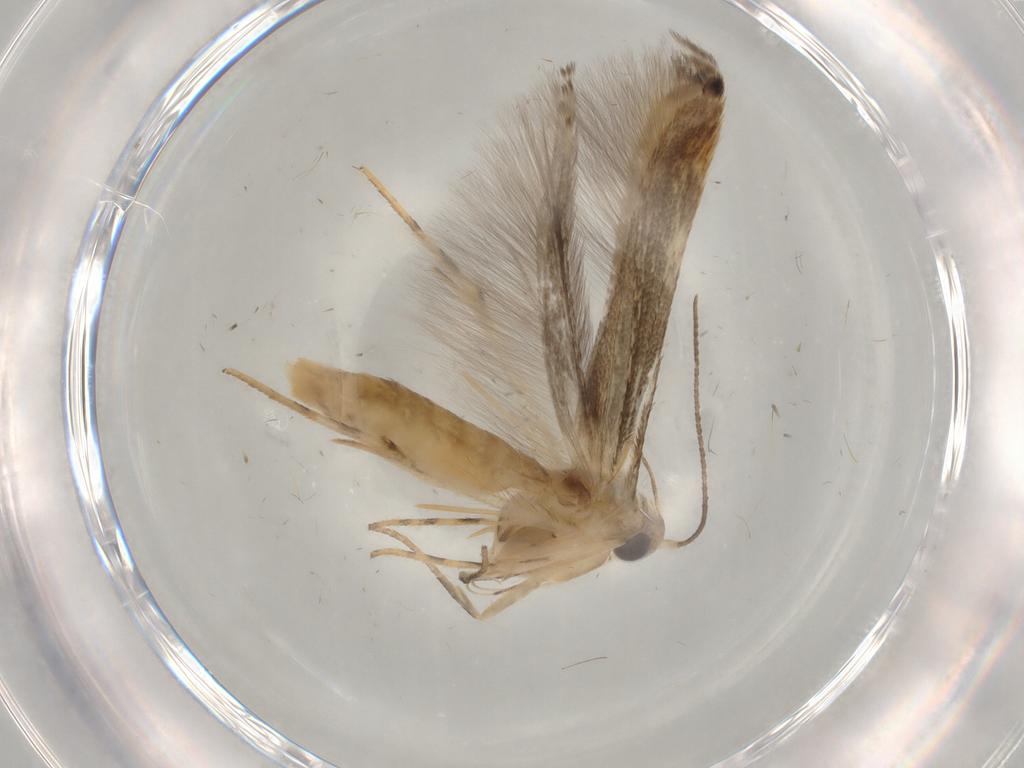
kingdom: Animalia
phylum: Arthropoda
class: Insecta
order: Lepidoptera
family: Gelechiidae
